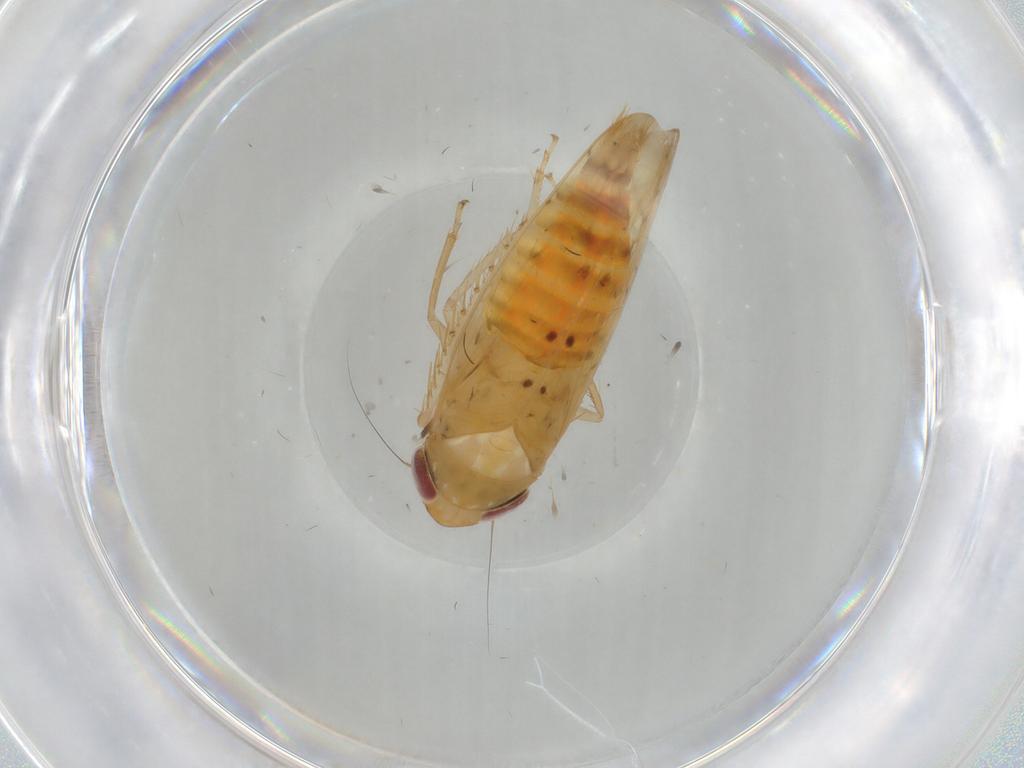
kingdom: Animalia
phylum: Arthropoda
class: Insecta
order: Hemiptera
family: Cicadellidae
